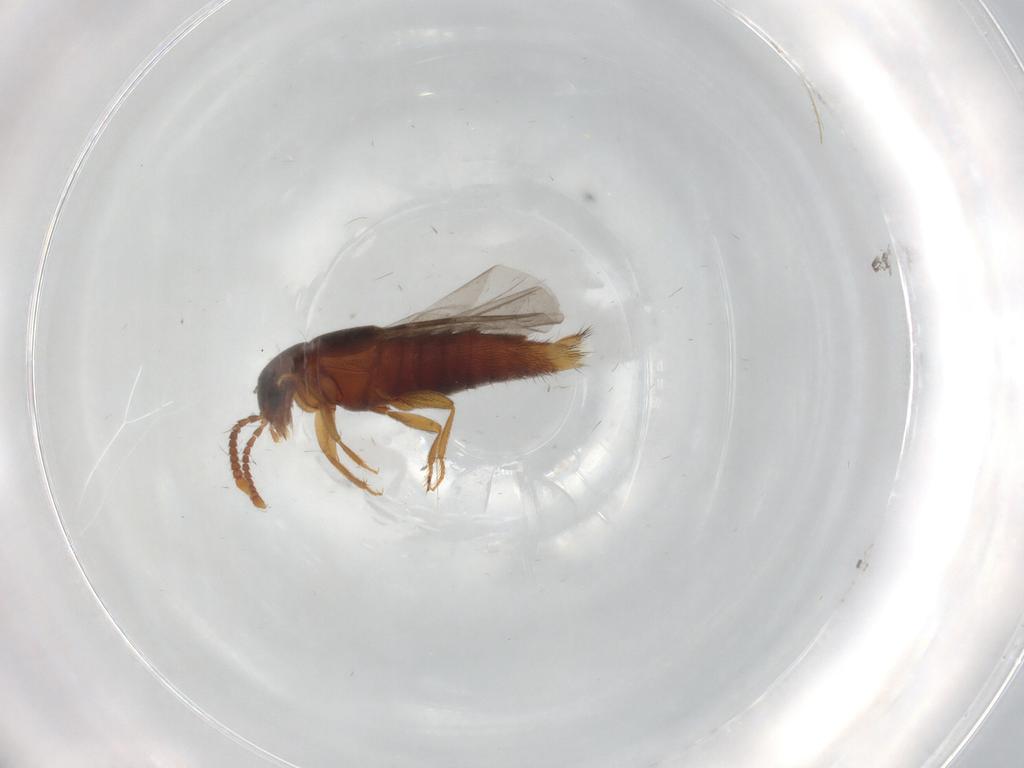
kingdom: Animalia
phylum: Arthropoda
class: Insecta
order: Coleoptera
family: Staphylinidae
